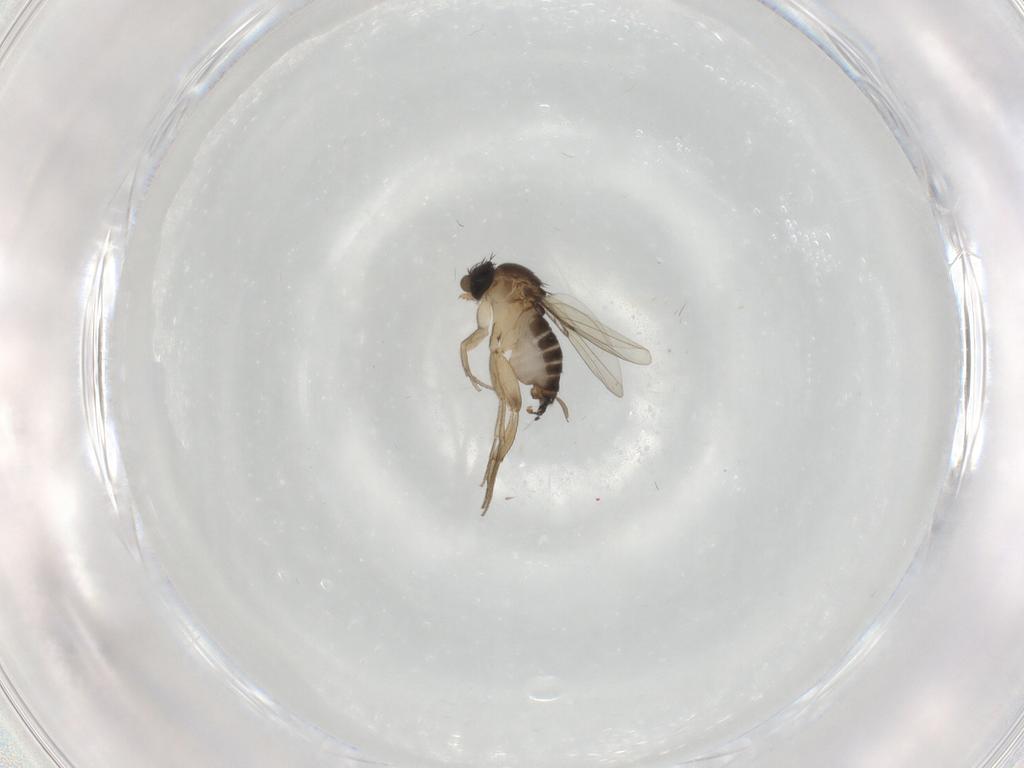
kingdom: Animalia
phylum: Arthropoda
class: Insecta
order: Diptera
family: Phoridae
